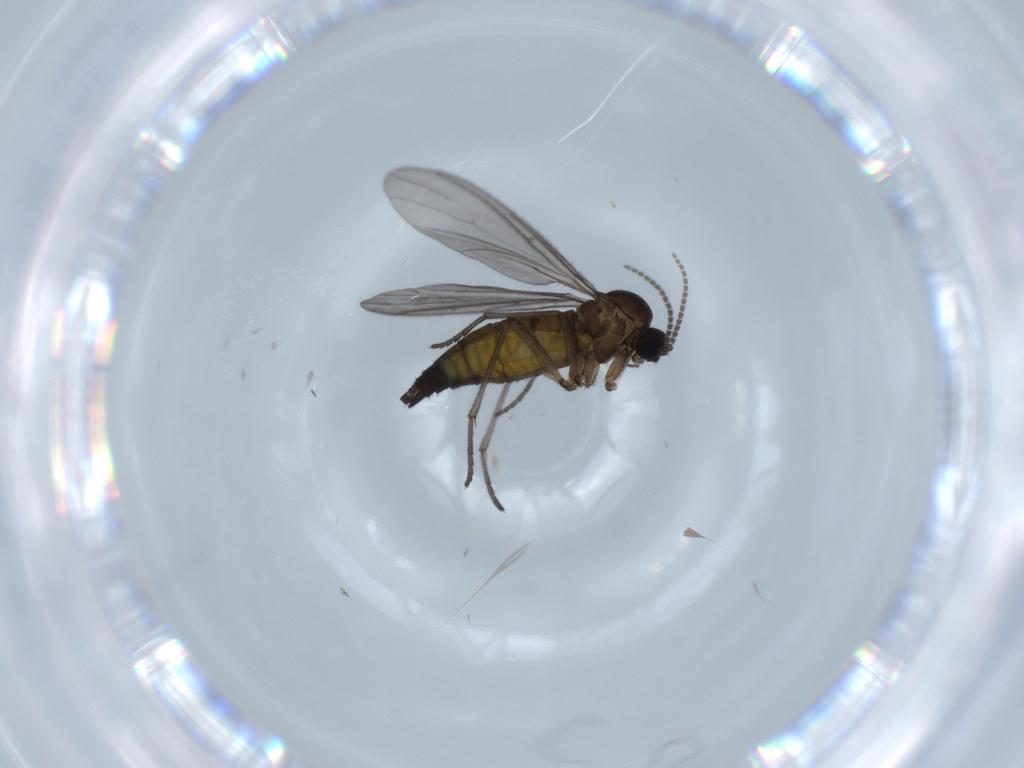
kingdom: Animalia
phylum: Arthropoda
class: Insecta
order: Diptera
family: Sciaridae
